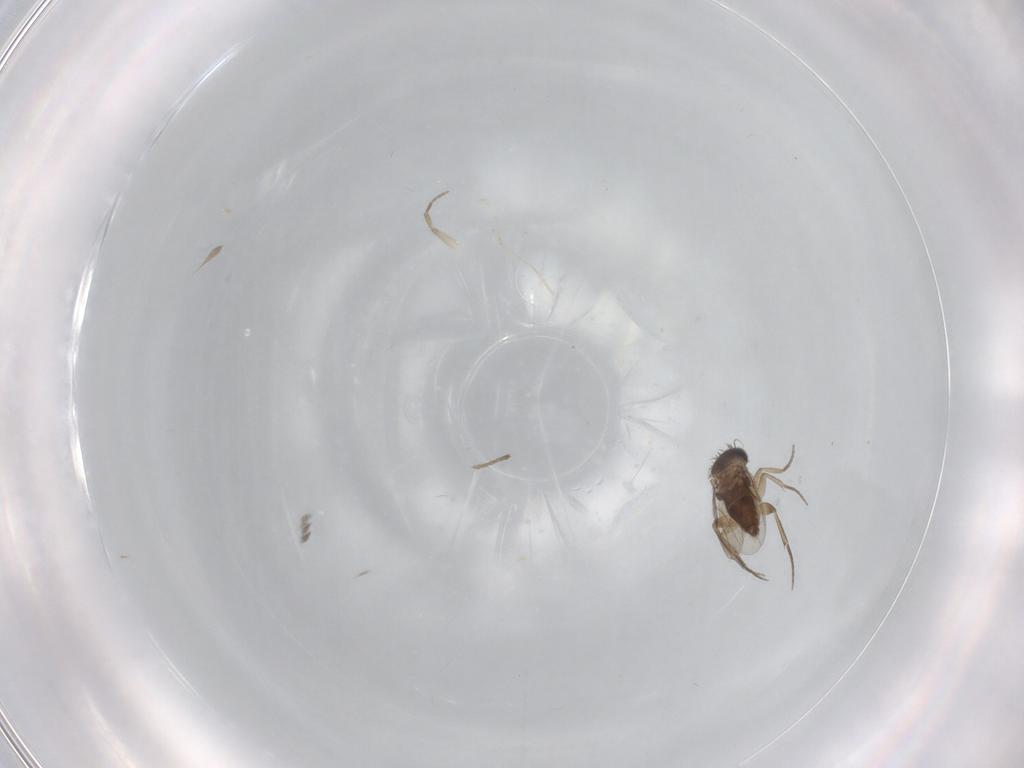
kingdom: Animalia
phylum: Arthropoda
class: Insecta
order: Diptera
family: Phoridae
